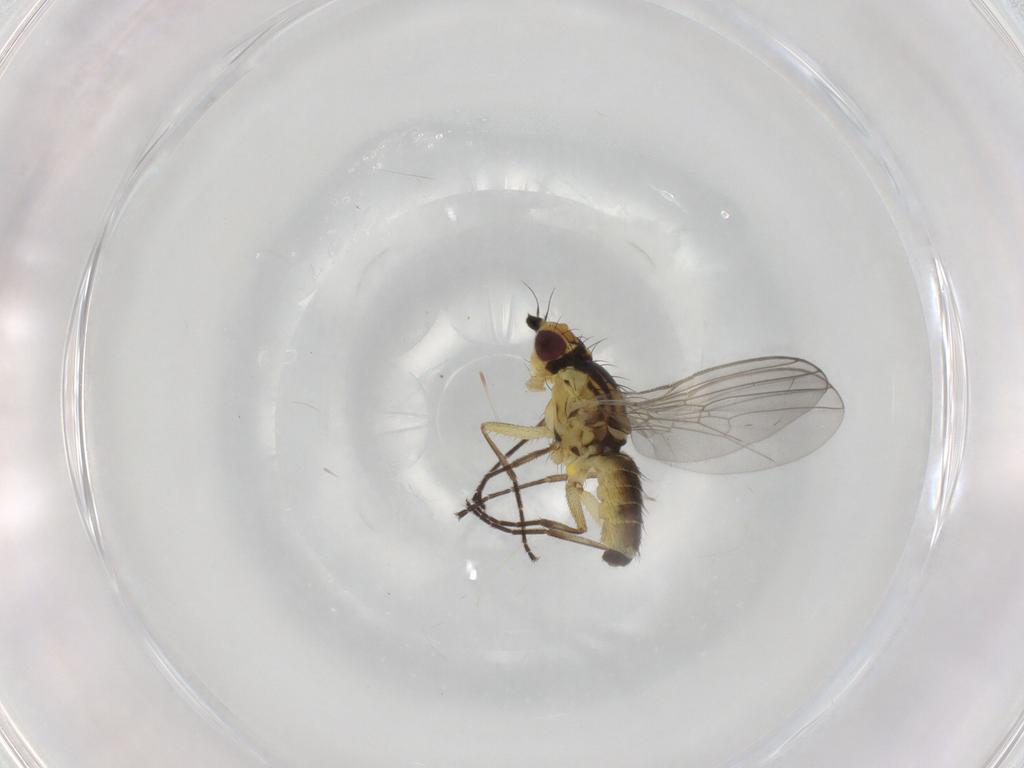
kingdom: Animalia
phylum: Arthropoda
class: Insecta
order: Diptera
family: Agromyzidae
